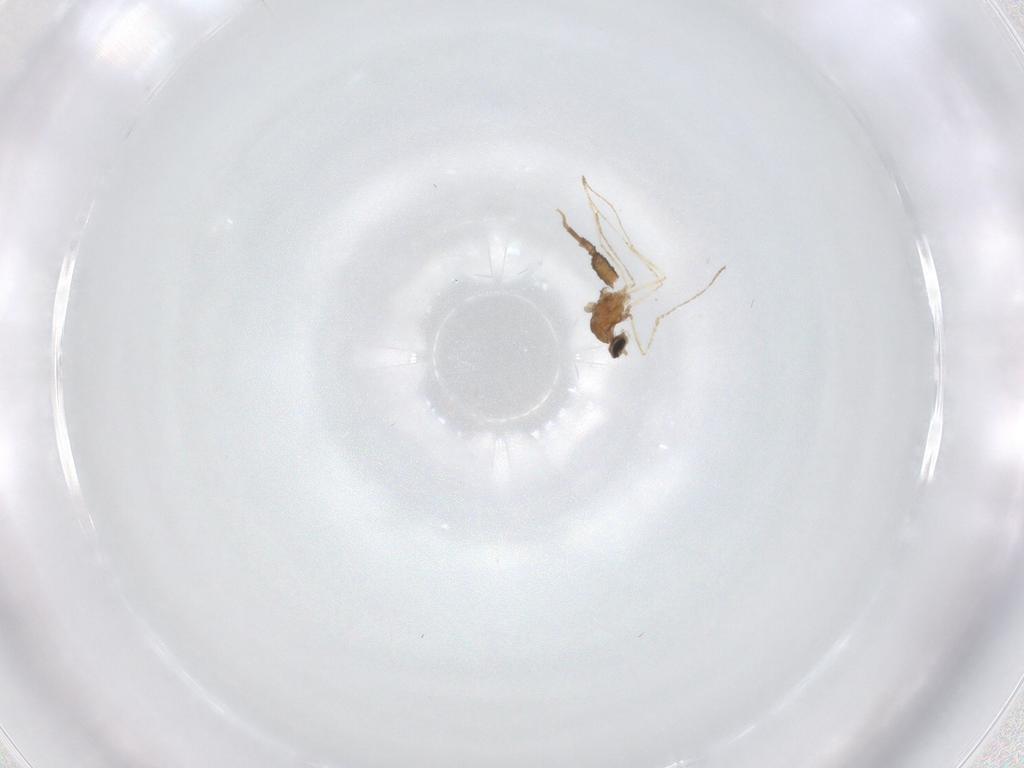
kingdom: Animalia
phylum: Arthropoda
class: Insecta
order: Diptera
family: Cecidomyiidae
